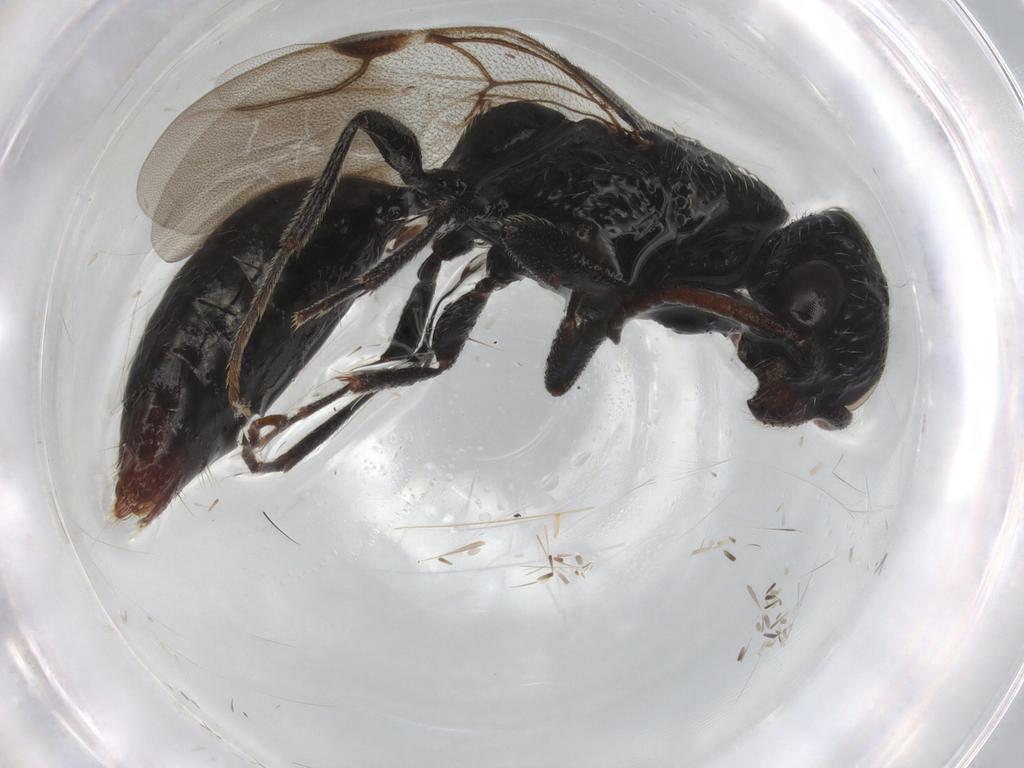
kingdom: Animalia
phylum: Arthropoda
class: Insecta
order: Hymenoptera
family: Bethylidae
